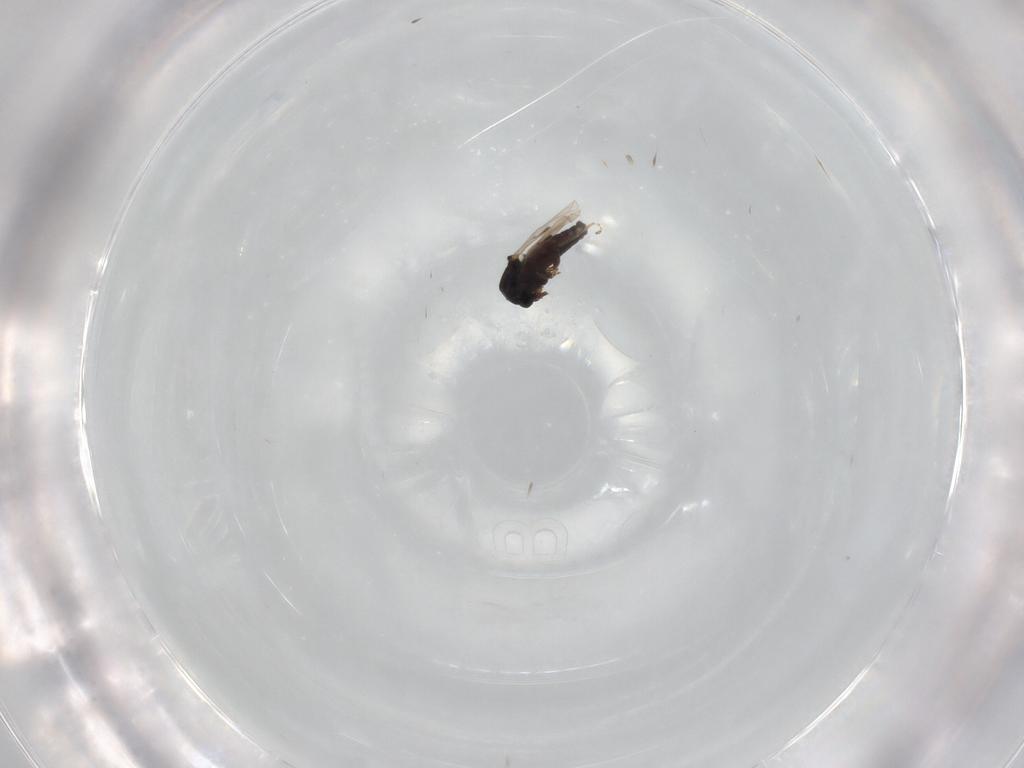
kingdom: Animalia
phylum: Arthropoda
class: Insecta
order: Diptera
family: Ceratopogonidae
